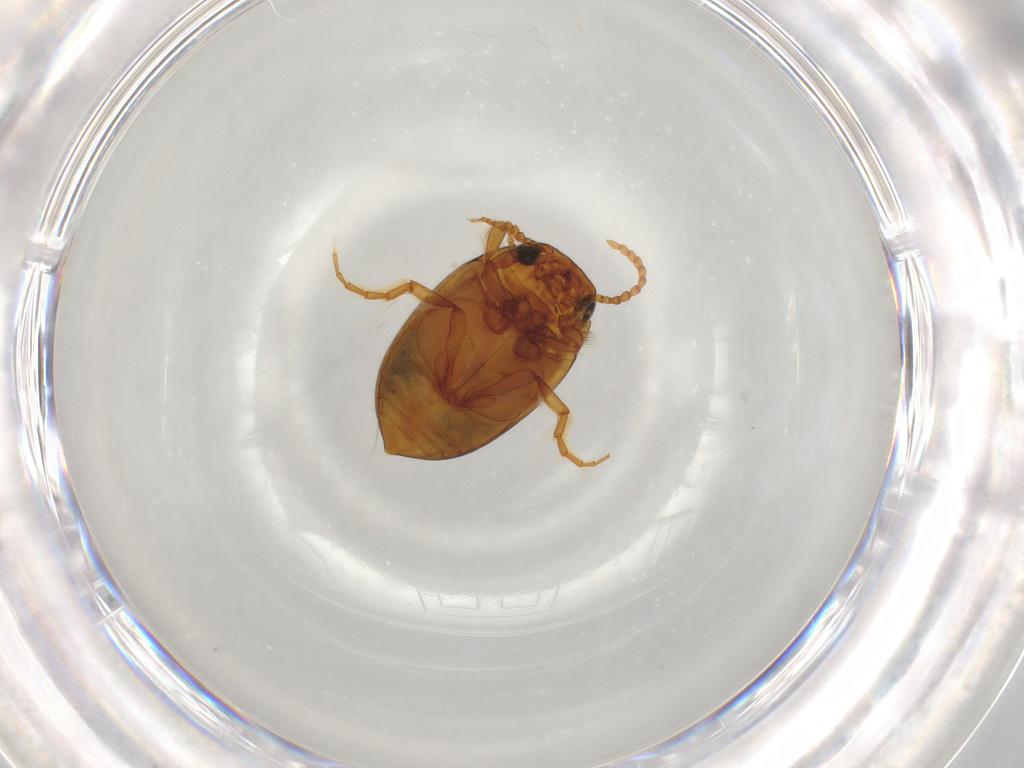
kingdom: Animalia
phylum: Arthropoda
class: Insecta
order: Coleoptera
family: Dytiscidae
